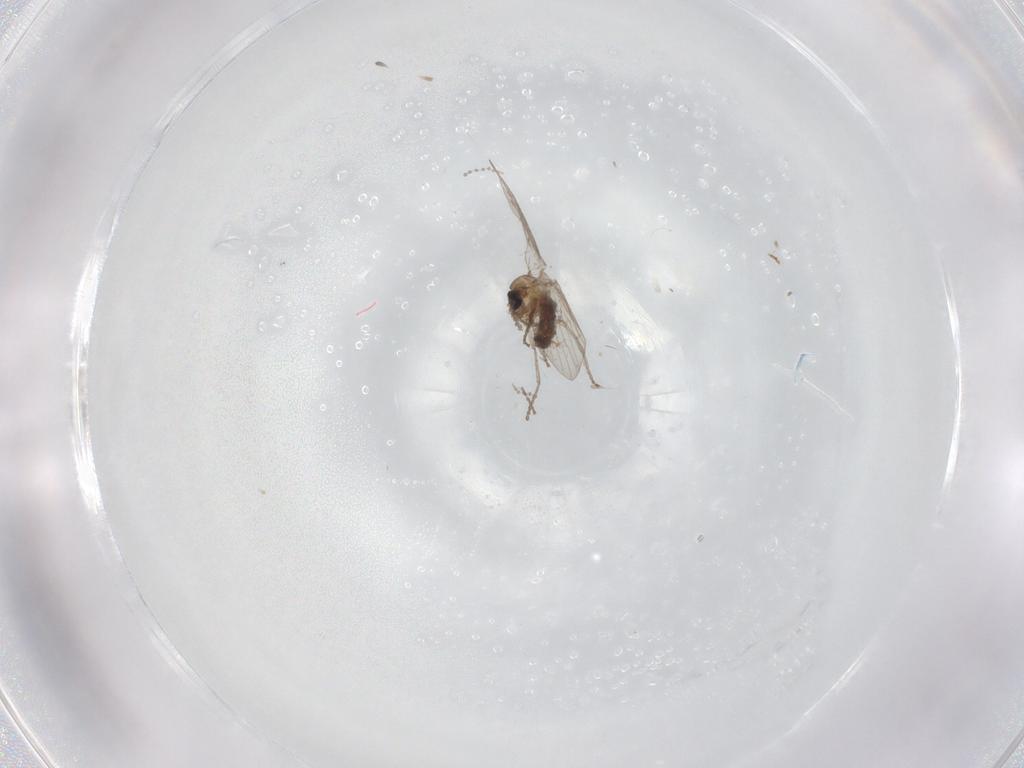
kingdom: Animalia
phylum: Arthropoda
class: Insecta
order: Diptera
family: Psychodidae
